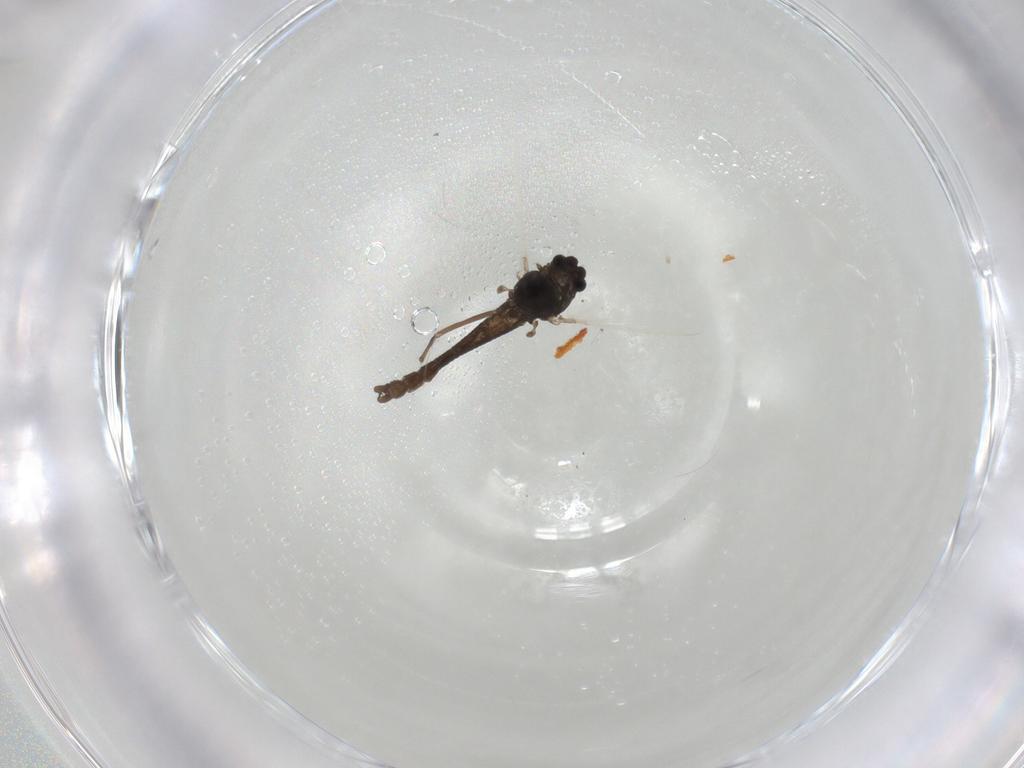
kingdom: Animalia
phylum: Arthropoda
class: Insecta
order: Diptera
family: Chironomidae
